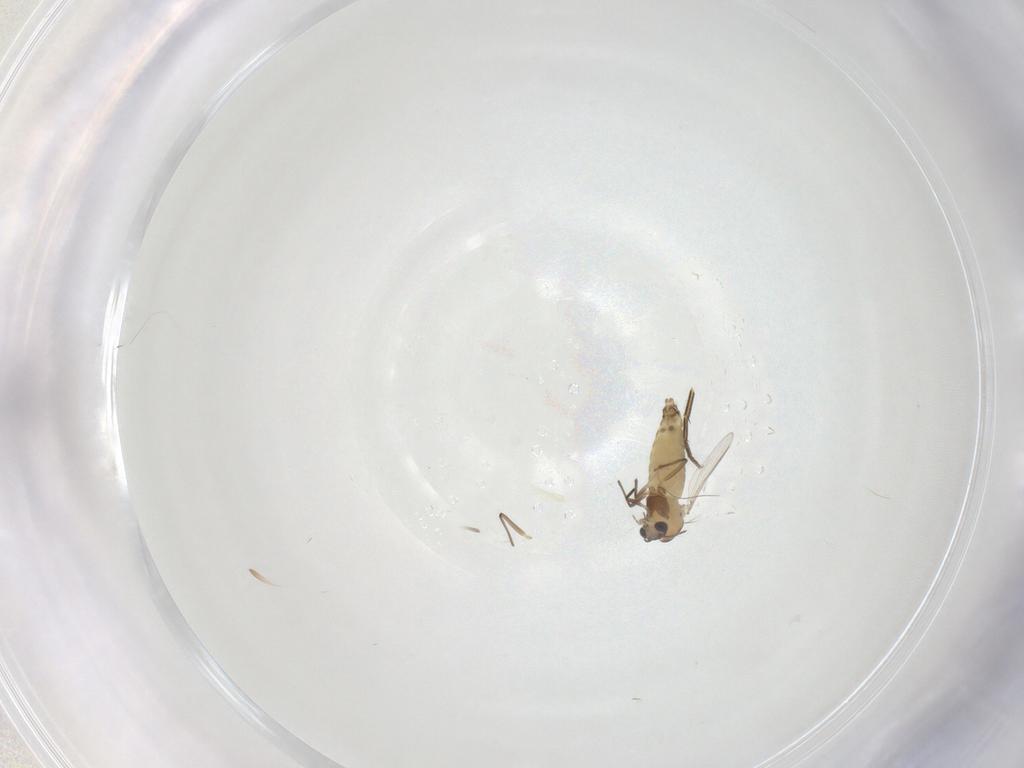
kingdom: Animalia
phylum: Arthropoda
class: Insecta
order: Diptera
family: Chironomidae
